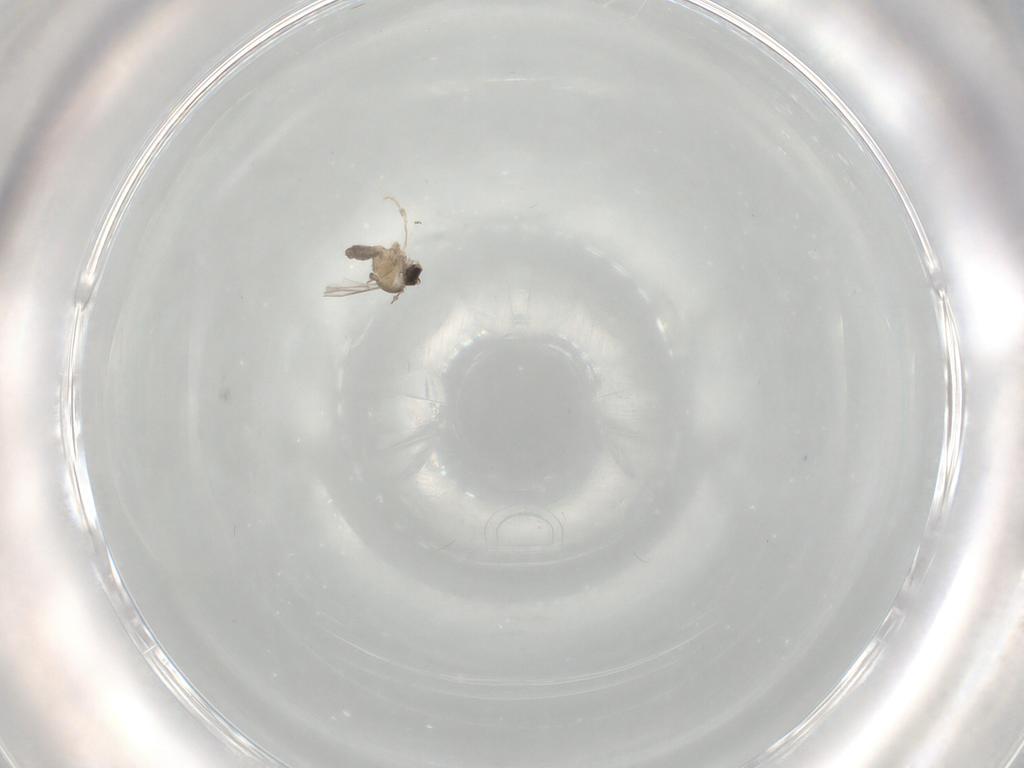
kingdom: Animalia
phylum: Arthropoda
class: Insecta
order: Diptera
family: Cecidomyiidae
